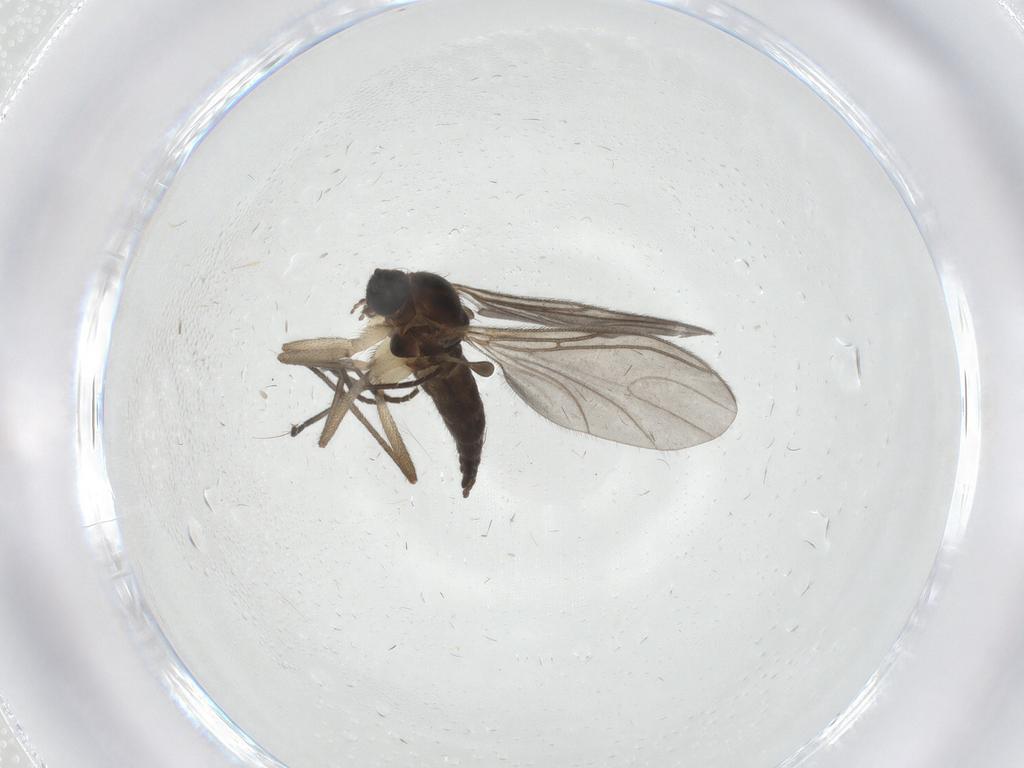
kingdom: Animalia
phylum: Arthropoda
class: Insecta
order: Diptera
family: Sciaridae
